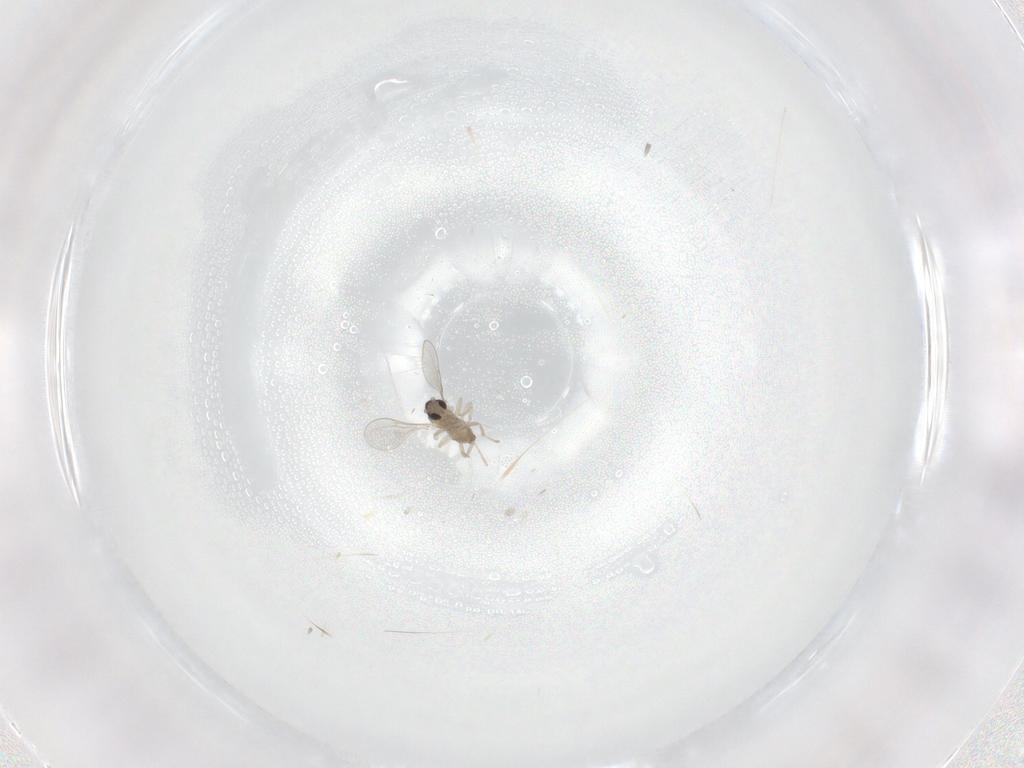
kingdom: Animalia
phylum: Arthropoda
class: Insecta
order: Diptera
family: Cecidomyiidae
